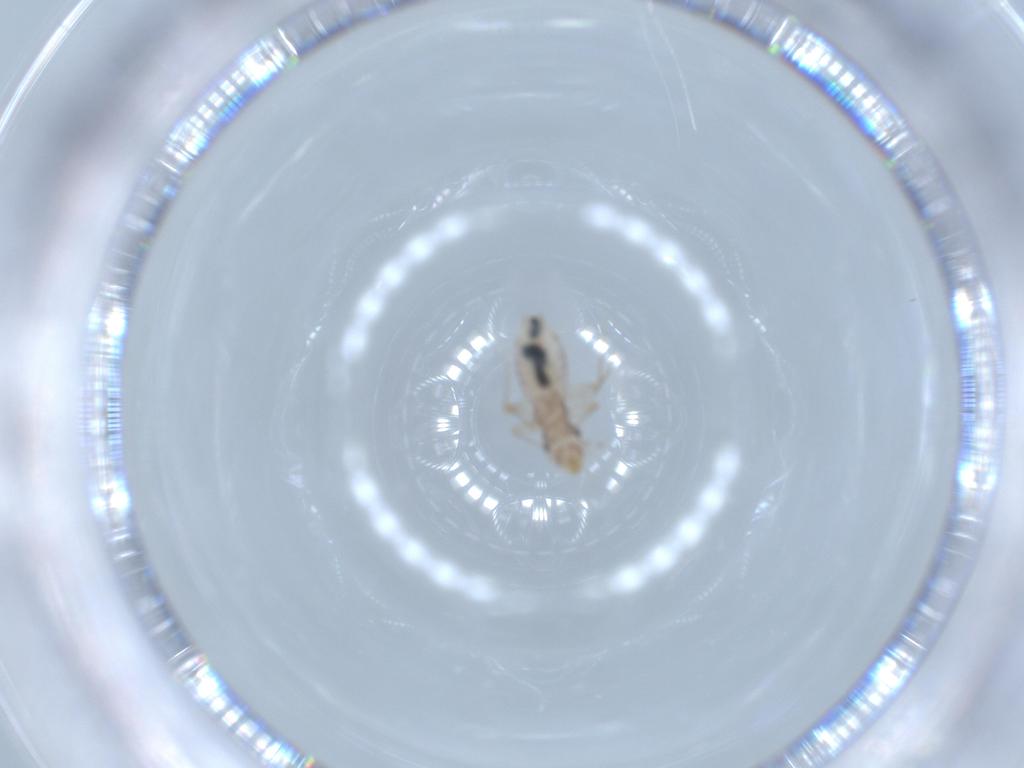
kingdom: Animalia
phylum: Arthropoda
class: Insecta
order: Psocodea
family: Lepidopsocidae
